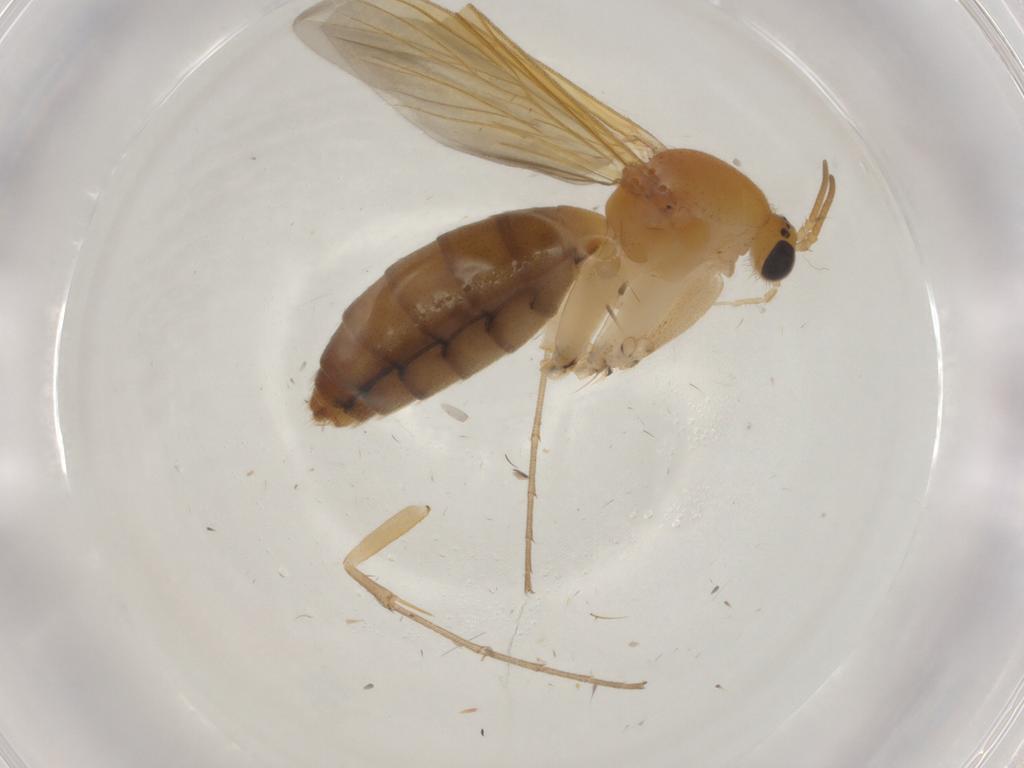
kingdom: Animalia
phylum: Arthropoda
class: Insecta
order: Diptera
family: Mycetophilidae
